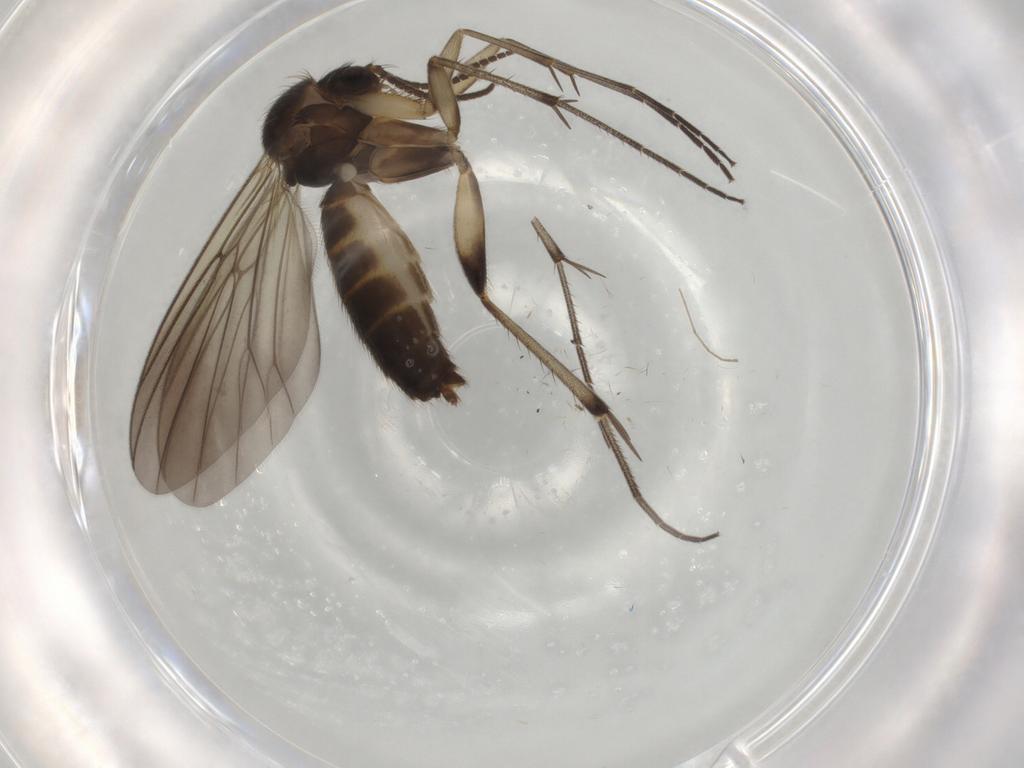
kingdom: Animalia
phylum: Arthropoda
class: Insecta
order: Diptera
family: Mycetophilidae
